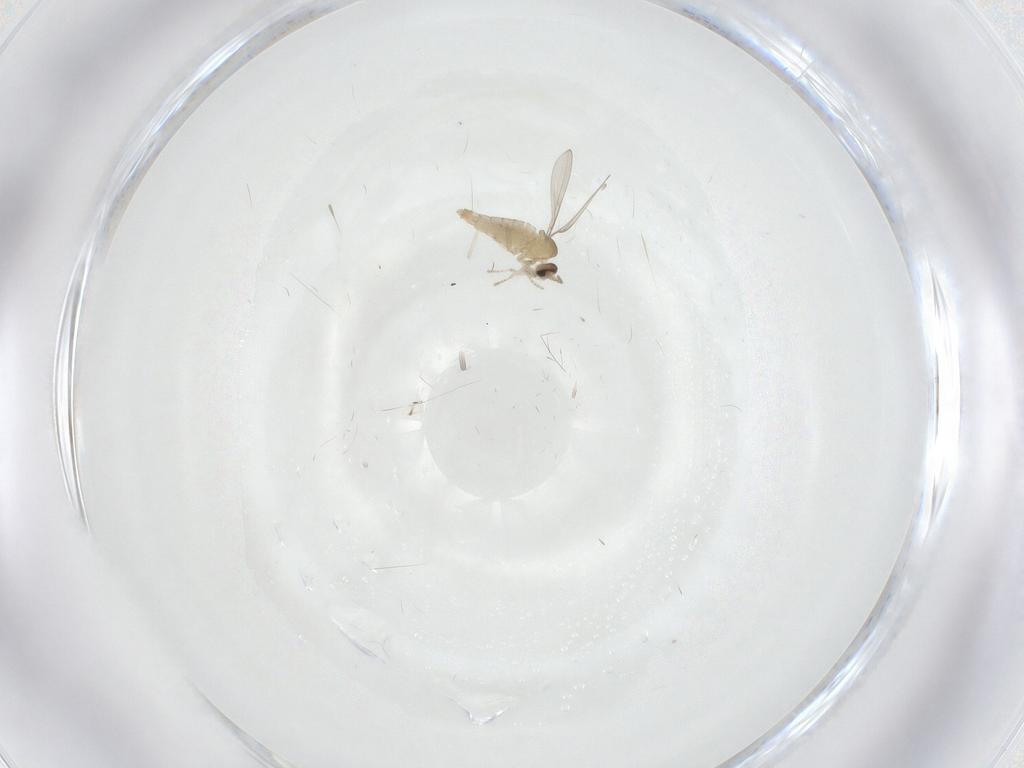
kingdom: Animalia
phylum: Arthropoda
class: Insecta
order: Diptera
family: Cecidomyiidae
